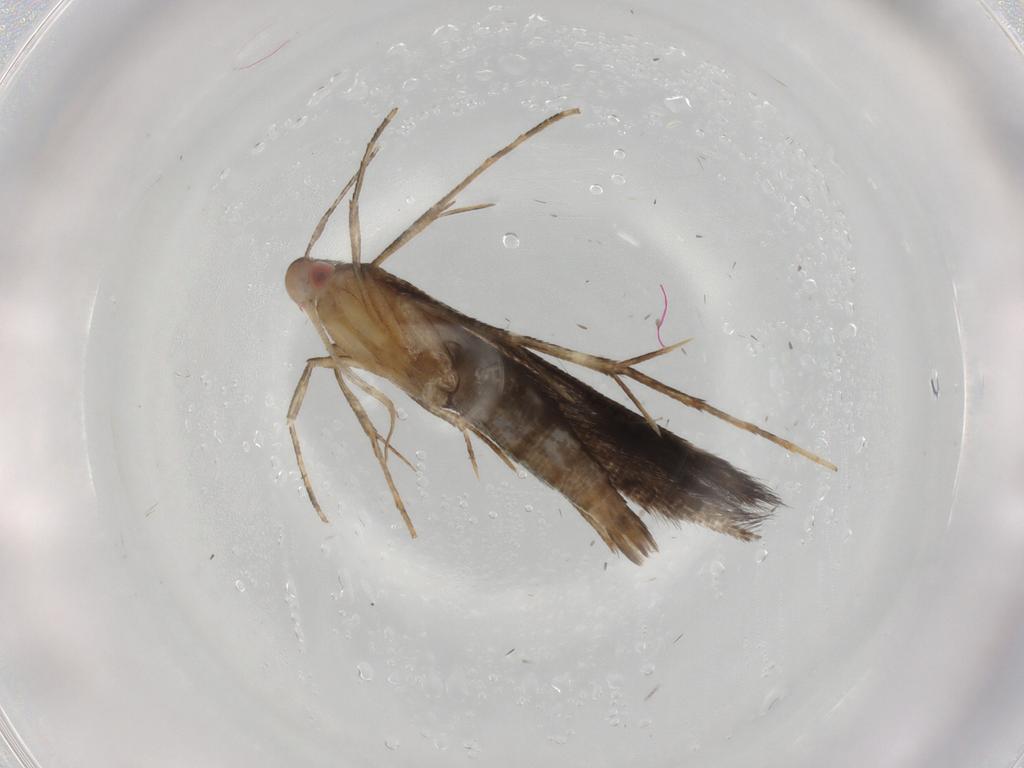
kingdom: Animalia
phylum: Arthropoda
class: Insecta
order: Lepidoptera
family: Cosmopterigidae
